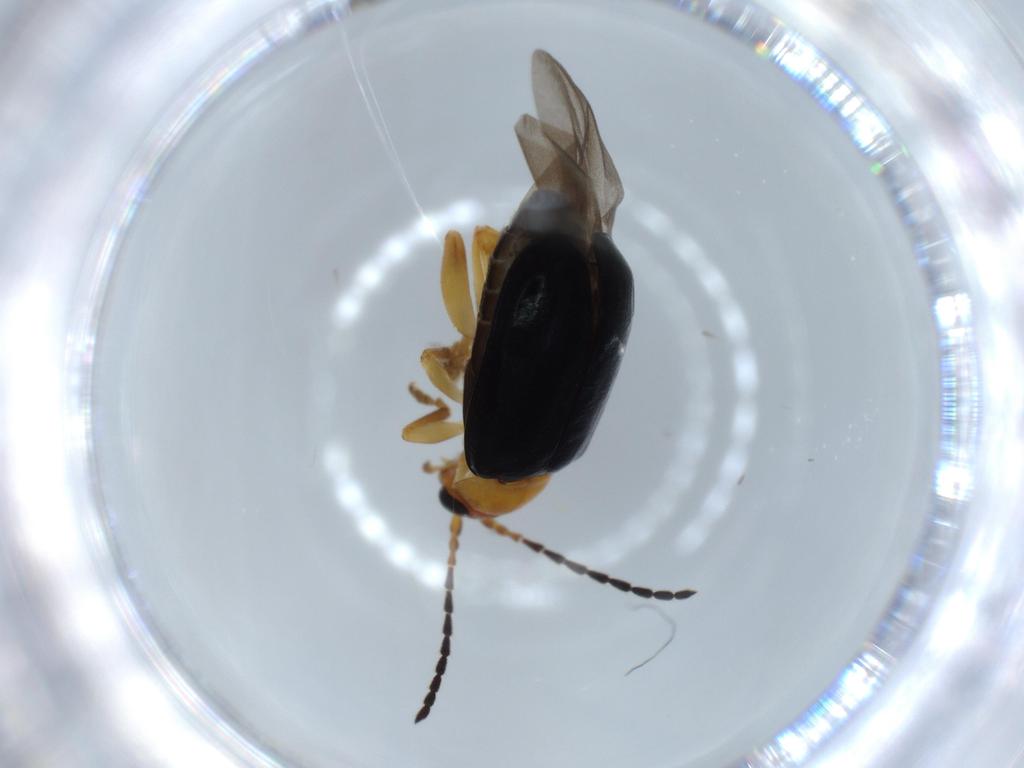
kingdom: Animalia
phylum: Arthropoda
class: Insecta
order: Coleoptera
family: Chrysomelidae
